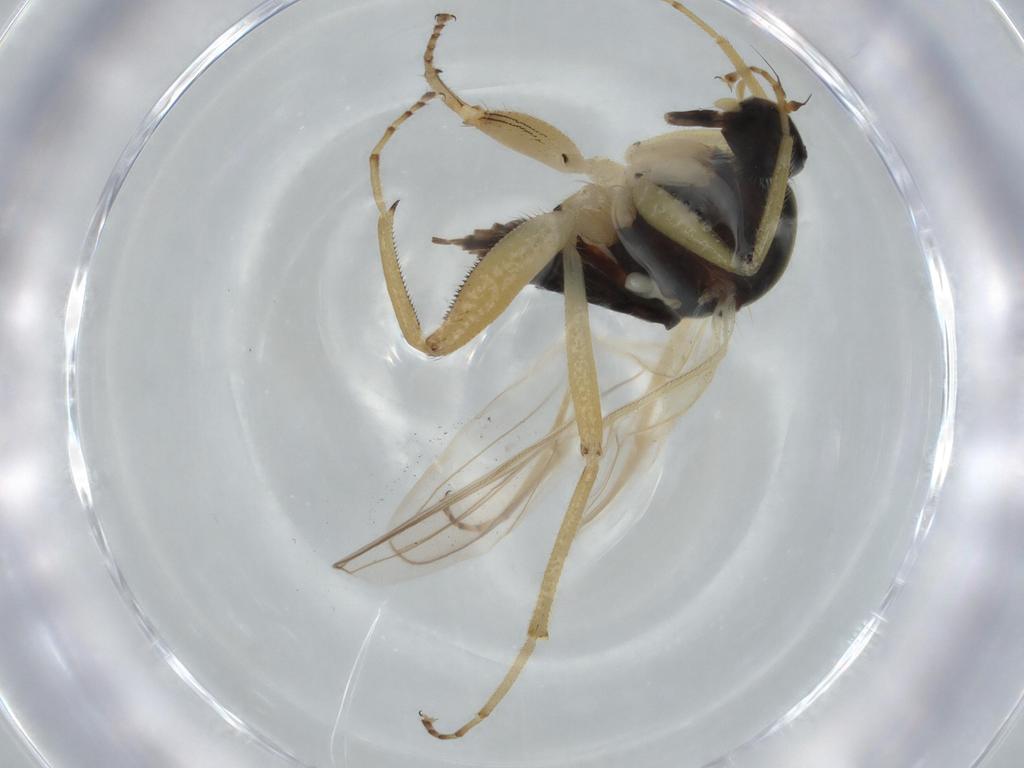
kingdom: Animalia
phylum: Arthropoda
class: Insecta
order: Diptera
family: Hybotidae
